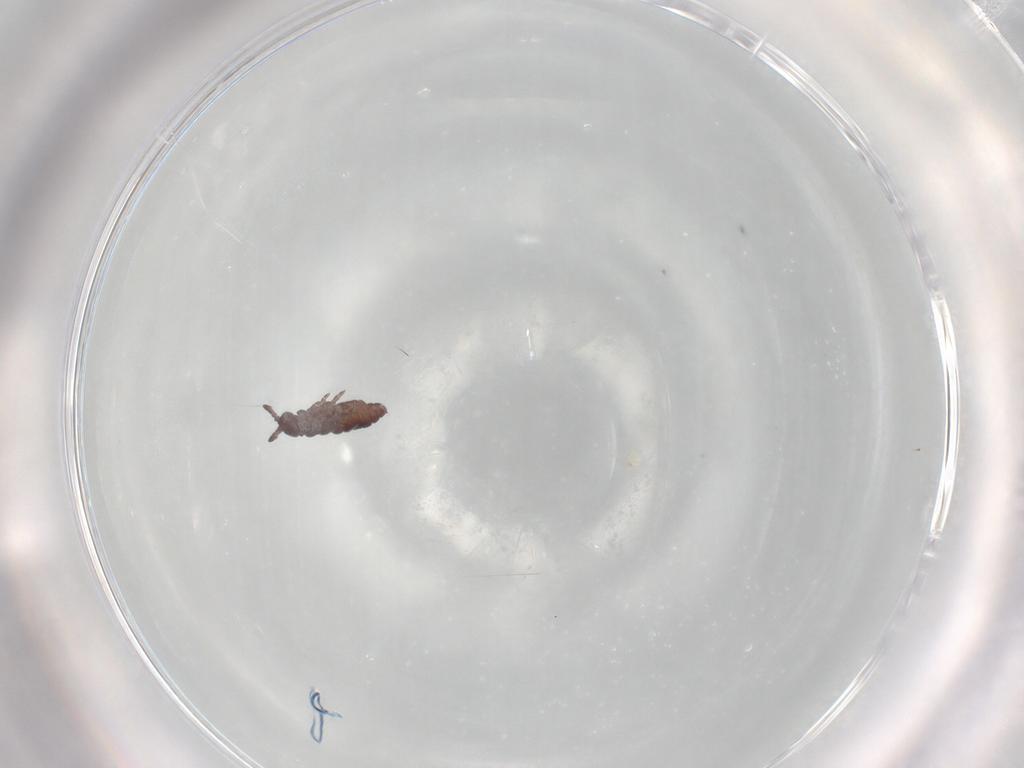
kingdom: Animalia
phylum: Arthropoda
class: Collembola
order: Poduromorpha
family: Hypogastruridae
